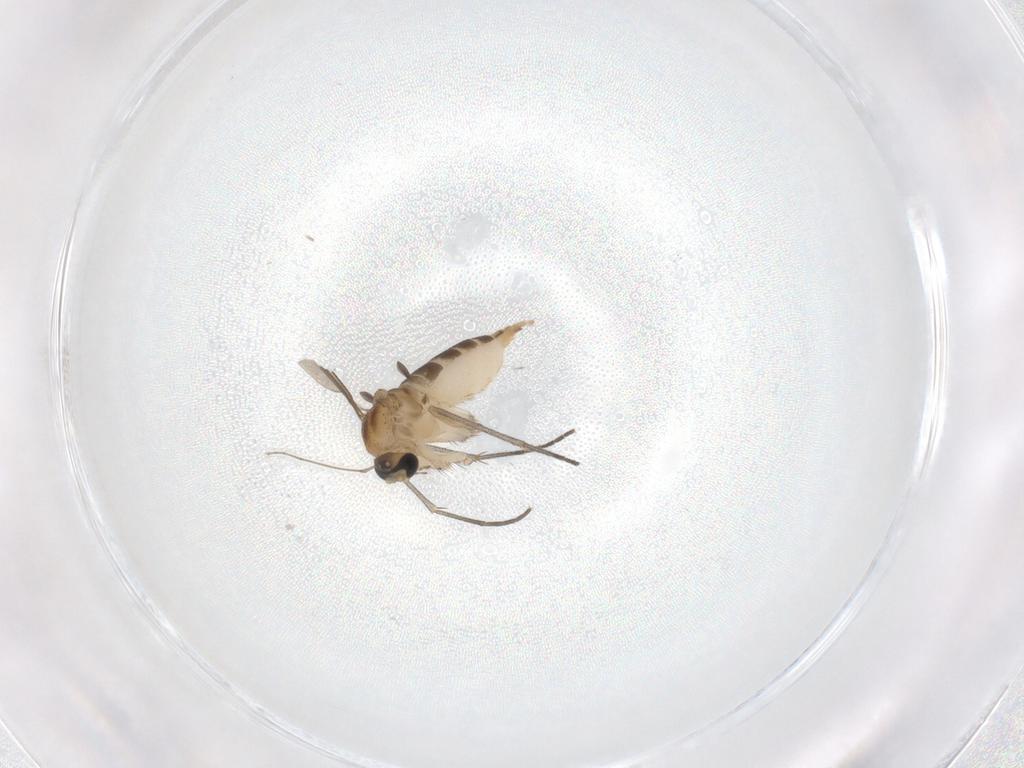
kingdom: Animalia
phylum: Arthropoda
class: Insecta
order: Diptera
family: Sciaridae
